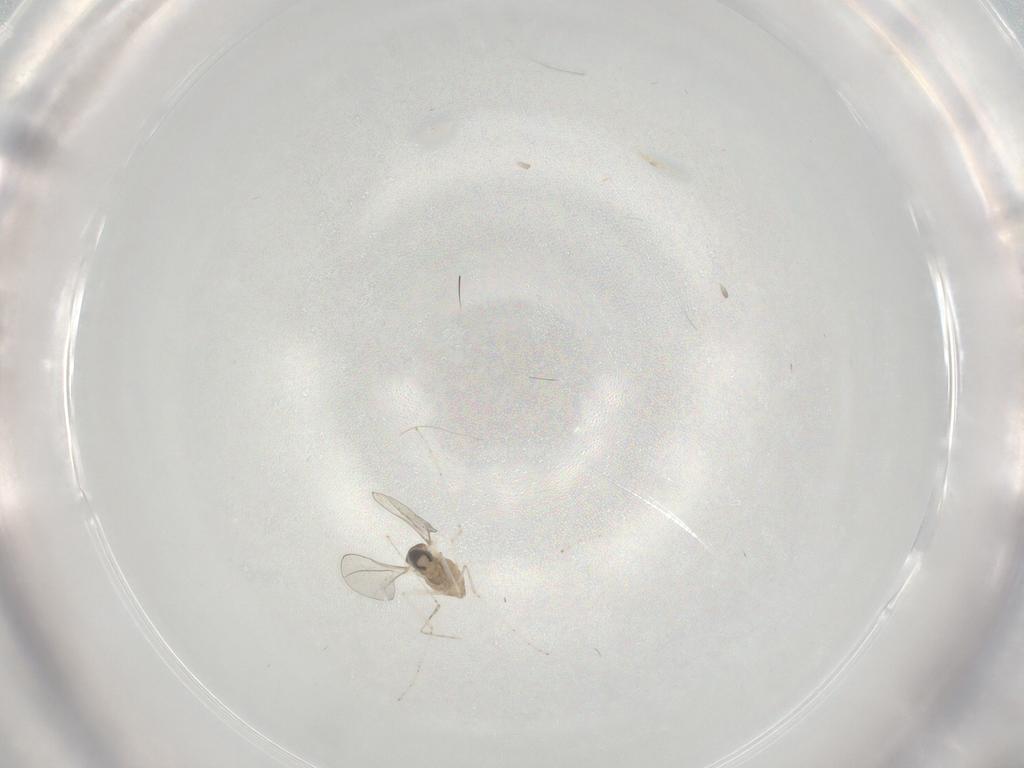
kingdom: Animalia
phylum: Arthropoda
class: Insecta
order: Diptera
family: Cecidomyiidae
